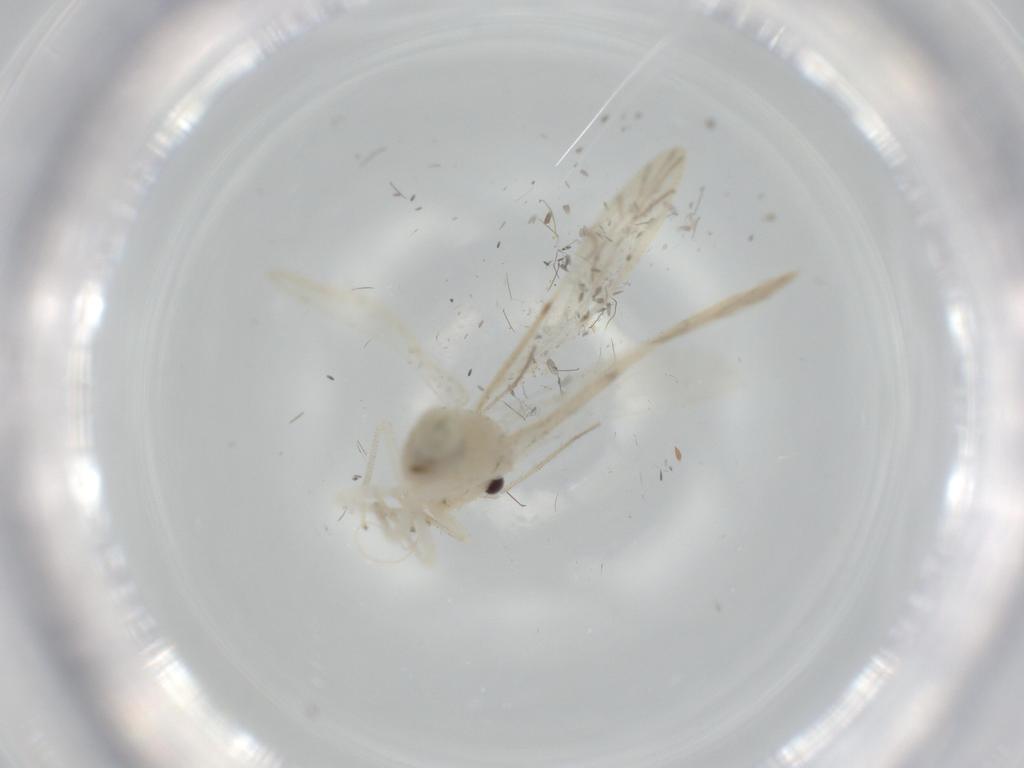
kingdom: Animalia
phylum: Arthropoda
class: Insecta
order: Psocodea
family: Caeciliusidae
